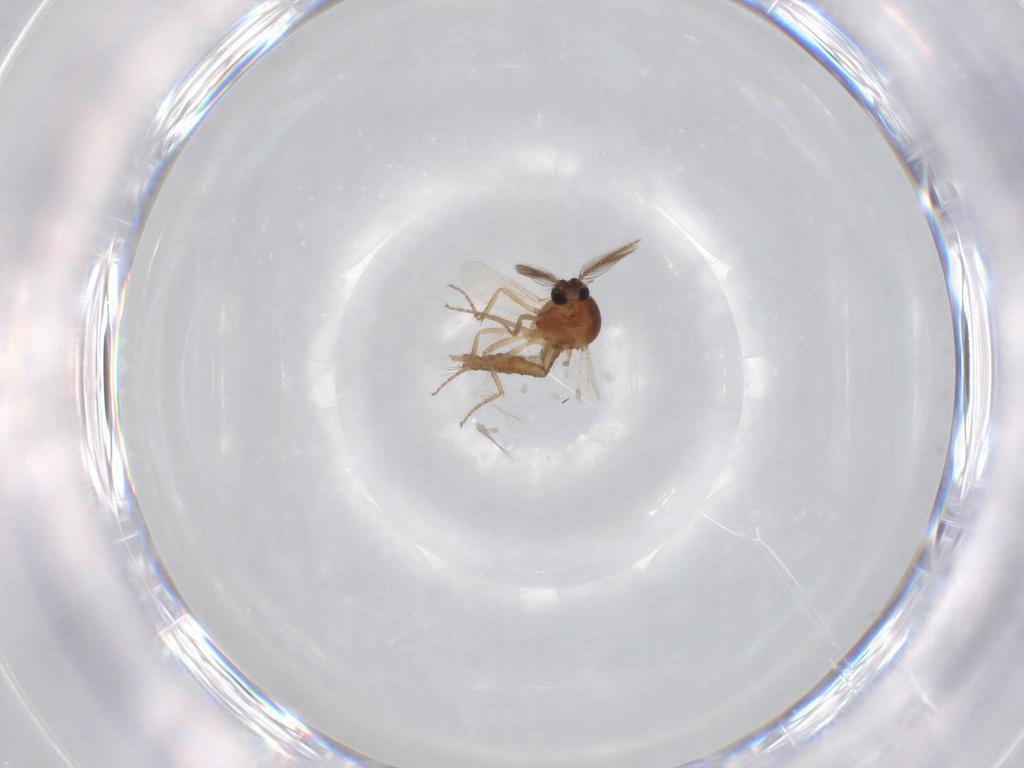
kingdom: Animalia
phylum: Arthropoda
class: Insecta
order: Diptera
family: Ceratopogonidae
